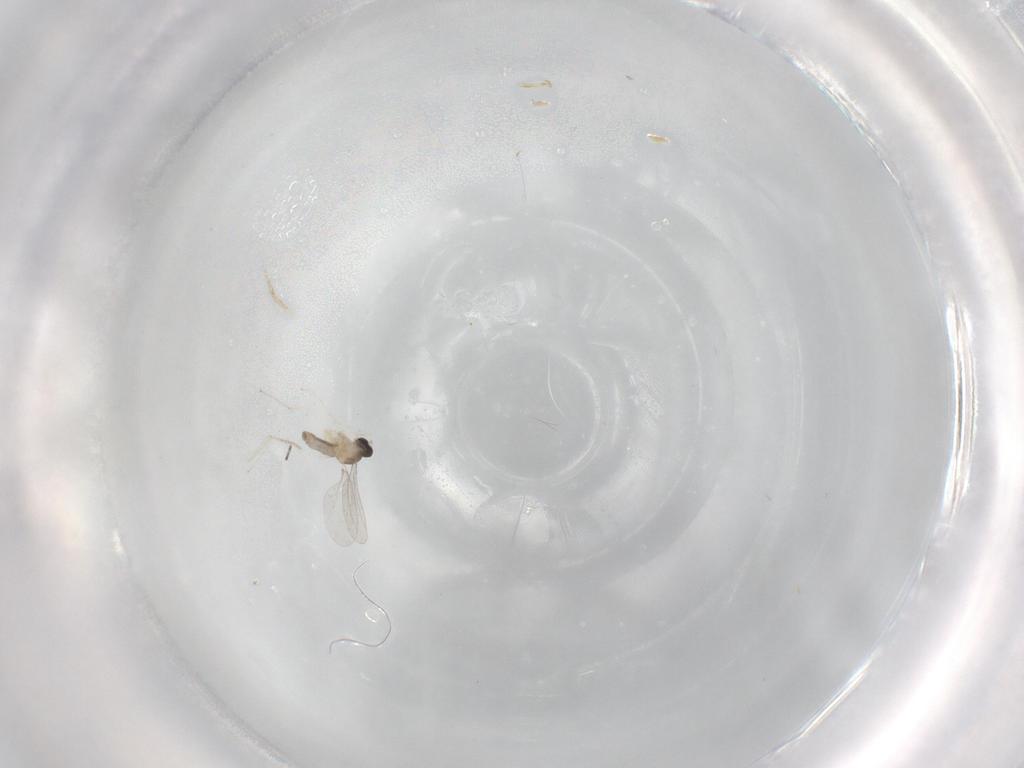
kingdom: Animalia
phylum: Arthropoda
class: Insecta
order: Diptera
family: Cecidomyiidae
